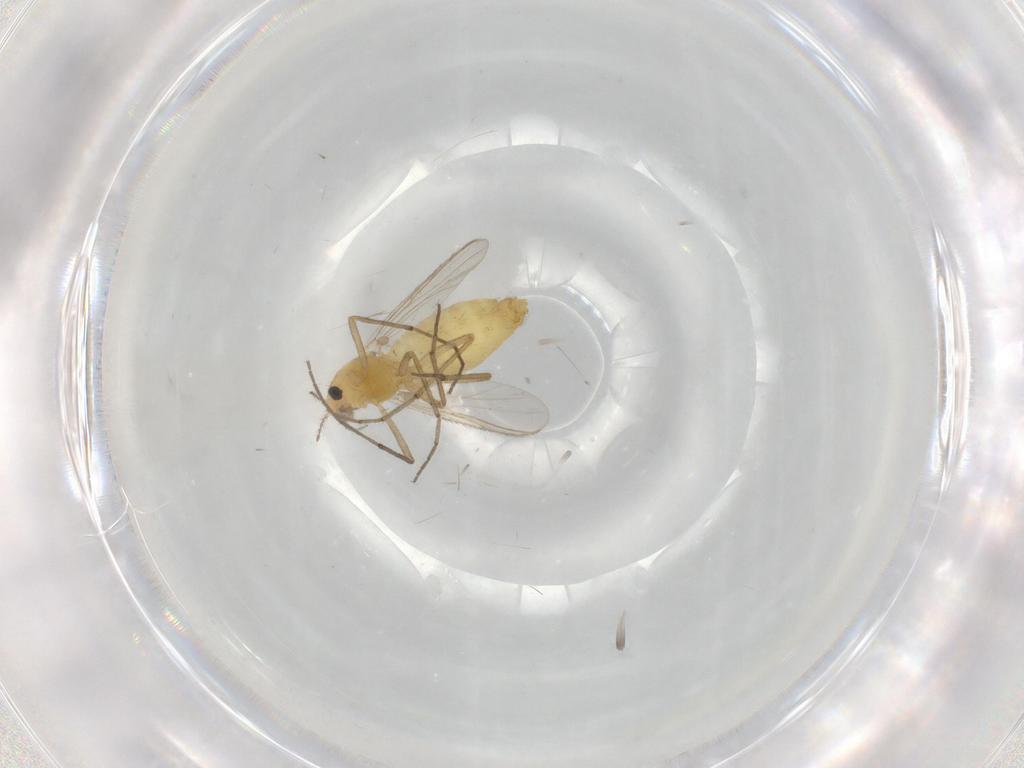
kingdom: Animalia
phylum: Arthropoda
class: Insecta
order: Diptera
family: Chironomidae
